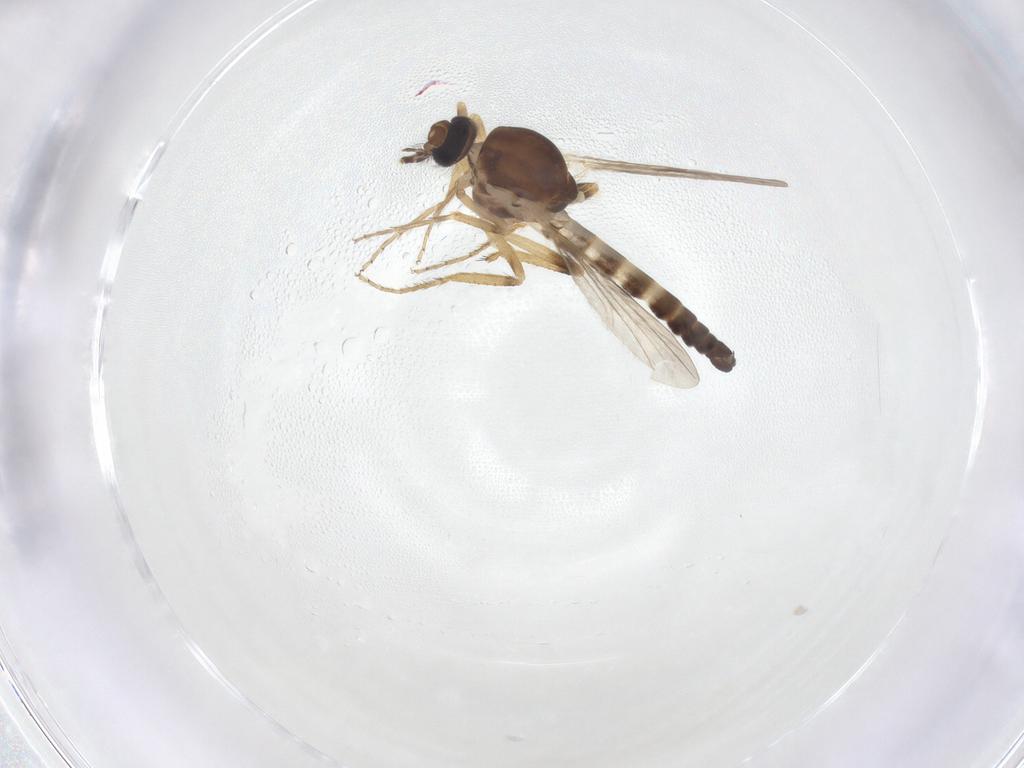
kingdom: Animalia
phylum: Arthropoda
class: Insecta
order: Diptera
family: Ceratopogonidae
